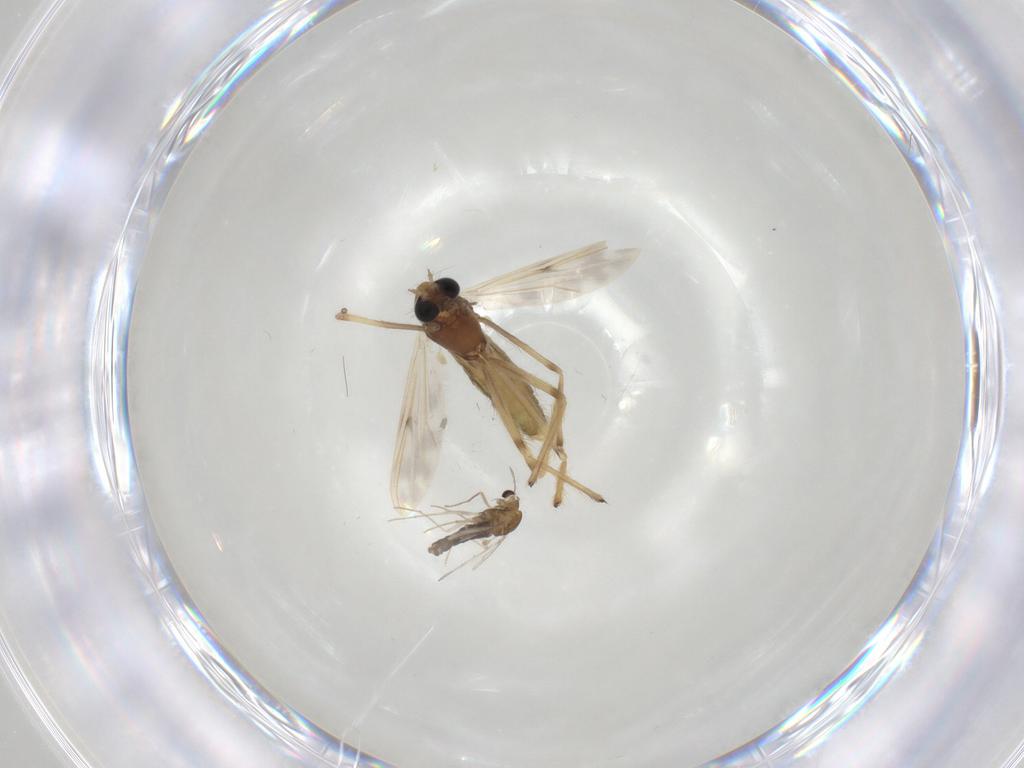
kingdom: Animalia
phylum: Arthropoda
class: Insecta
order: Diptera
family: Chironomidae
